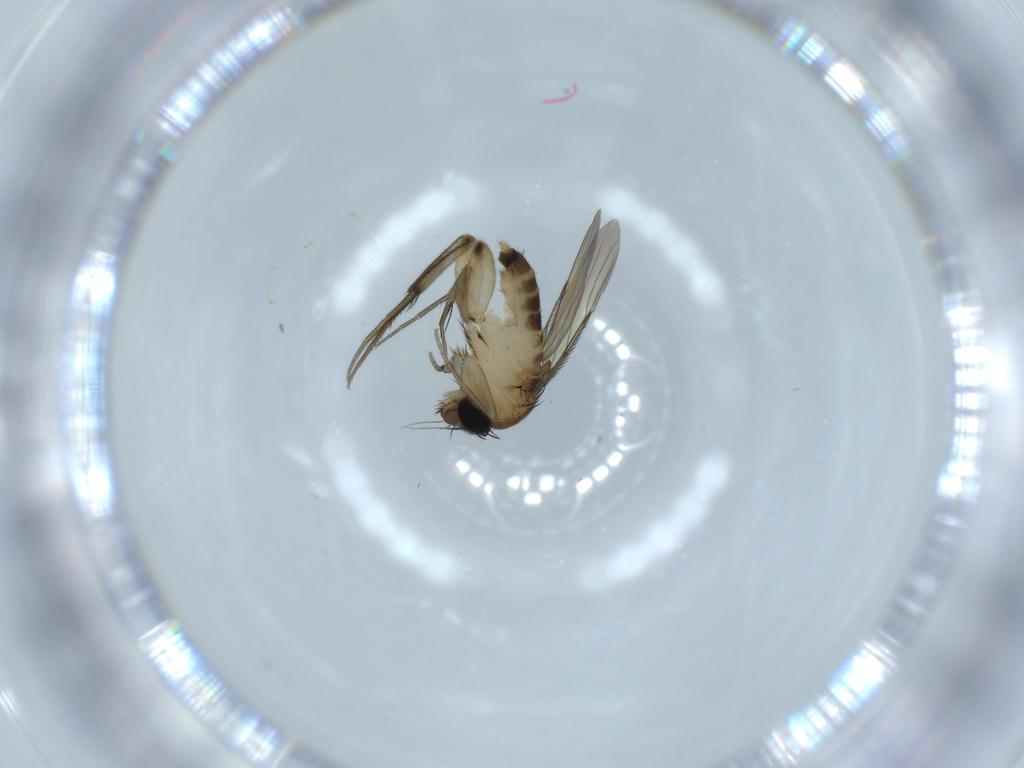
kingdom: Animalia
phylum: Arthropoda
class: Insecta
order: Diptera
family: Phoridae
